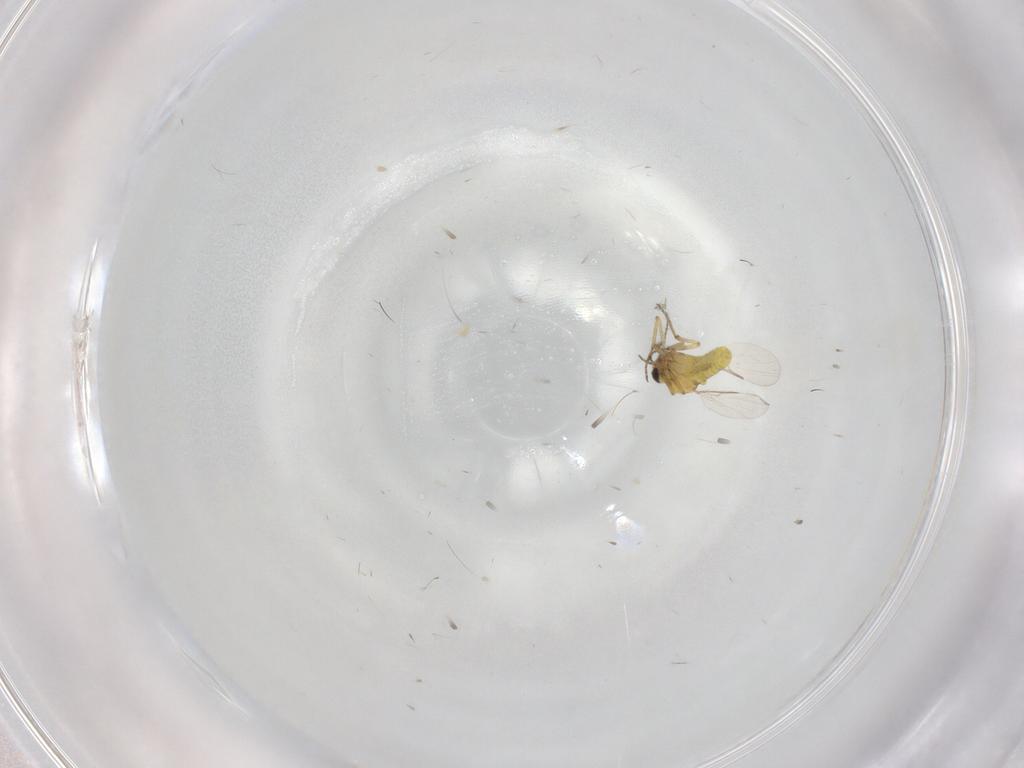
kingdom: Animalia
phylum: Arthropoda
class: Insecta
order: Diptera
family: Ceratopogonidae
